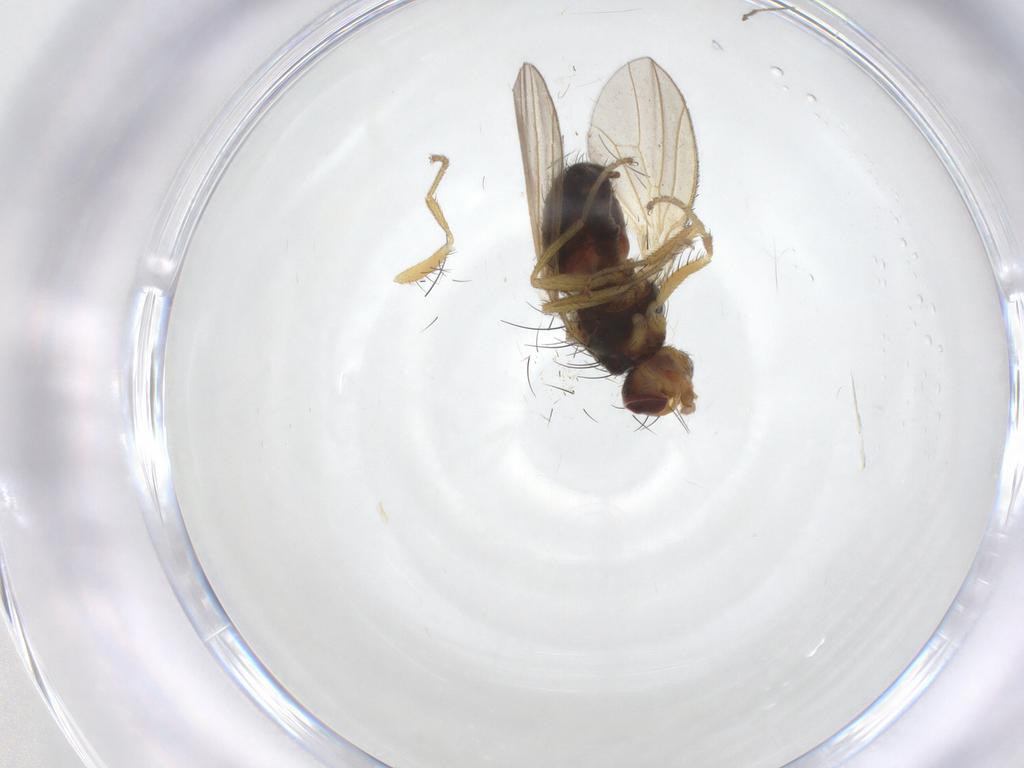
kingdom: Animalia
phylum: Arthropoda
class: Insecta
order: Diptera
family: Heleomyzidae
